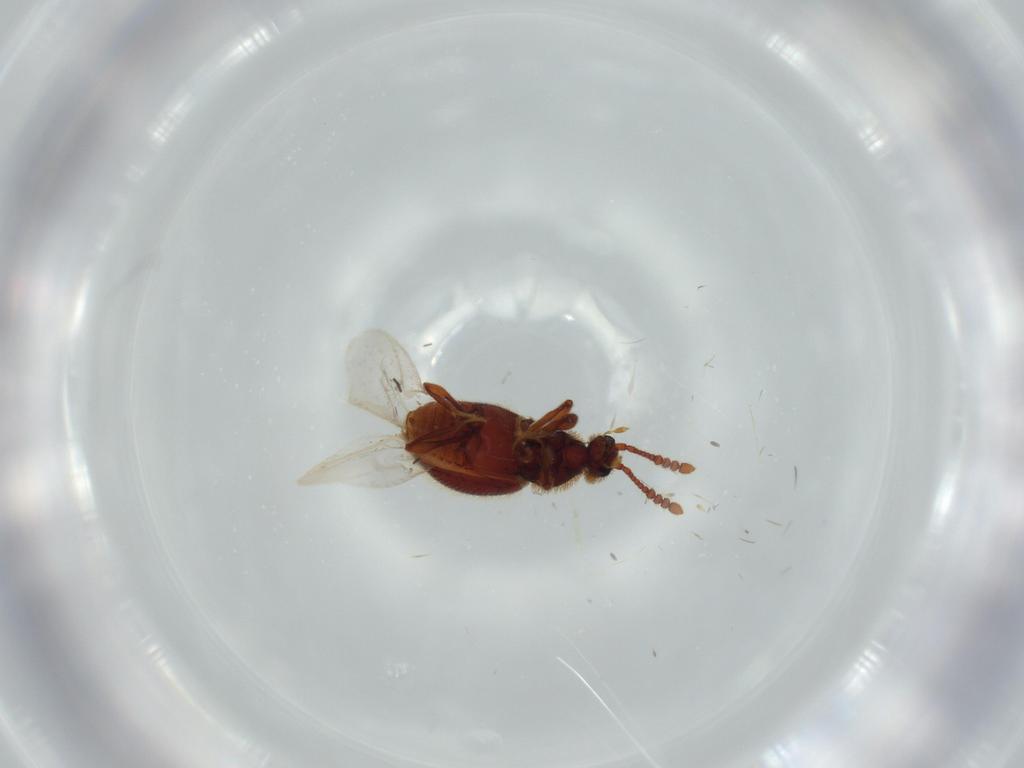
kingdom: Animalia
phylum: Arthropoda
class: Insecta
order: Coleoptera
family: Staphylinidae
